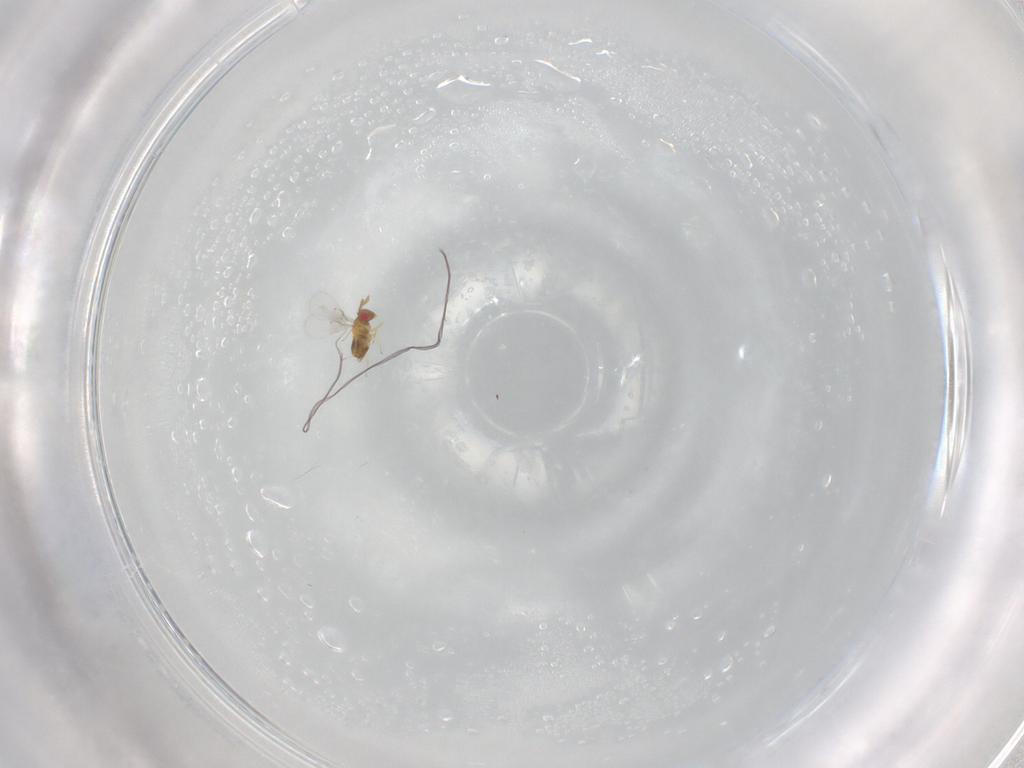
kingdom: Animalia
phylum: Arthropoda
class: Insecta
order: Hymenoptera
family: Trichogrammatidae
